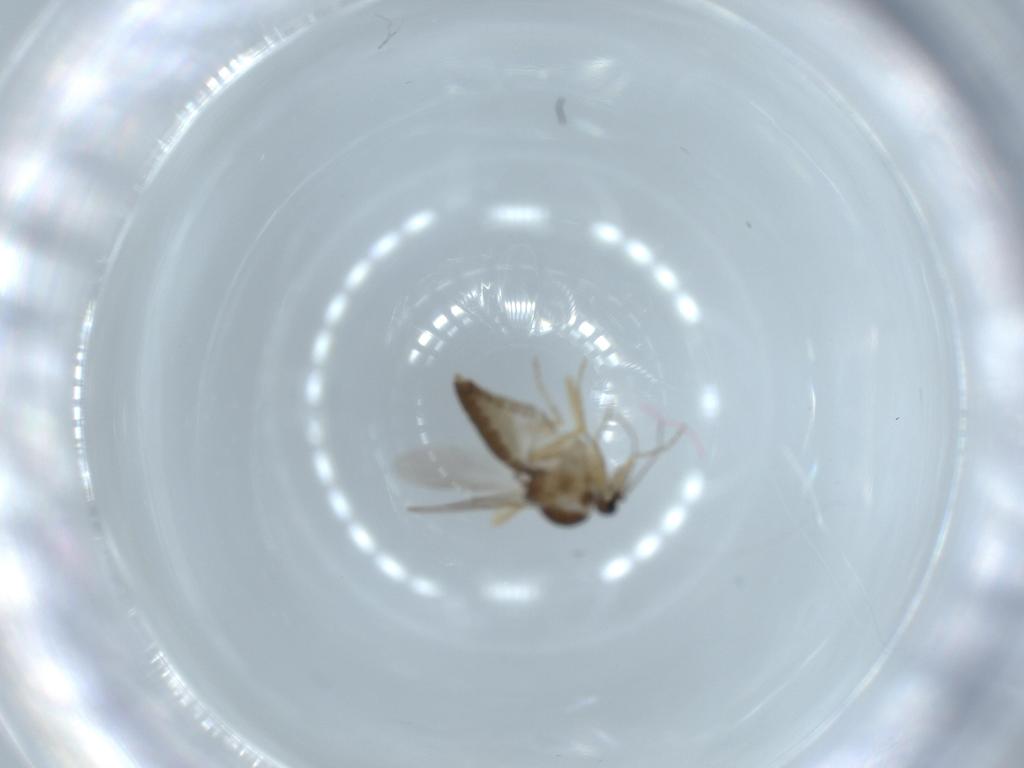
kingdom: Animalia
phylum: Arthropoda
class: Insecta
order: Diptera
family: Ceratopogonidae
